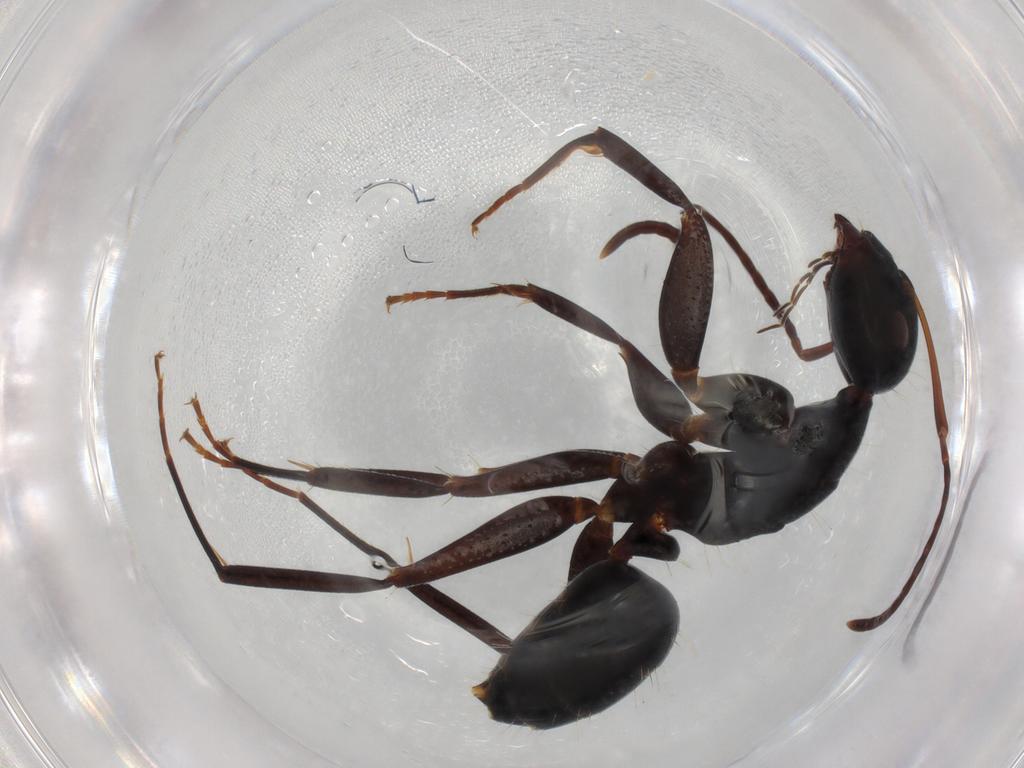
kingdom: Animalia
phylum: Arthropoda
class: Insecta
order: Hymenoptera
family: Formicidae
